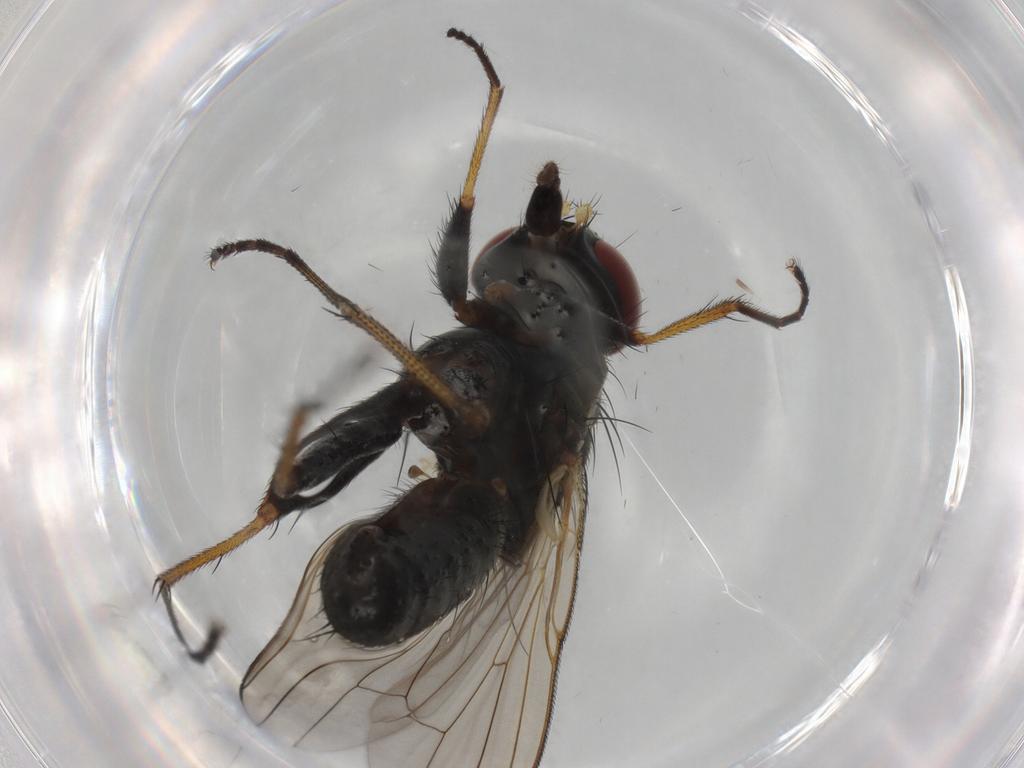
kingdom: Animalia
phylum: Arthropoda
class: Insecta
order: Diptera
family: Muscidae
